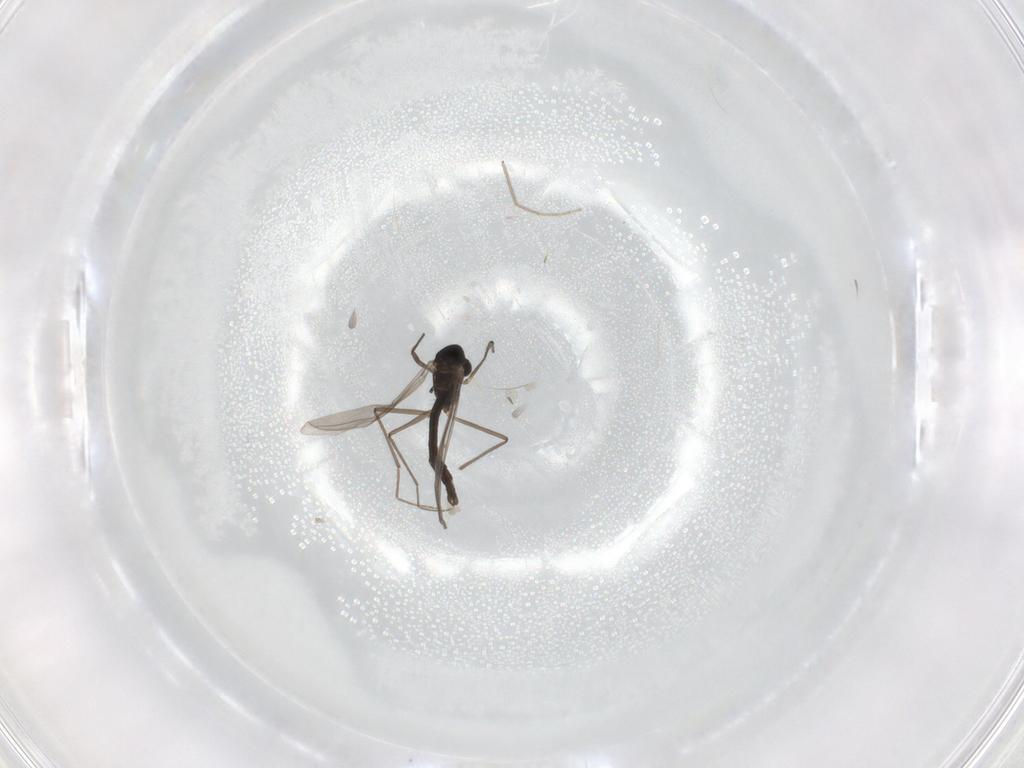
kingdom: Animalia
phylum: Arthropoda
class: Insecta
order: Diptera
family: Chironomidae
